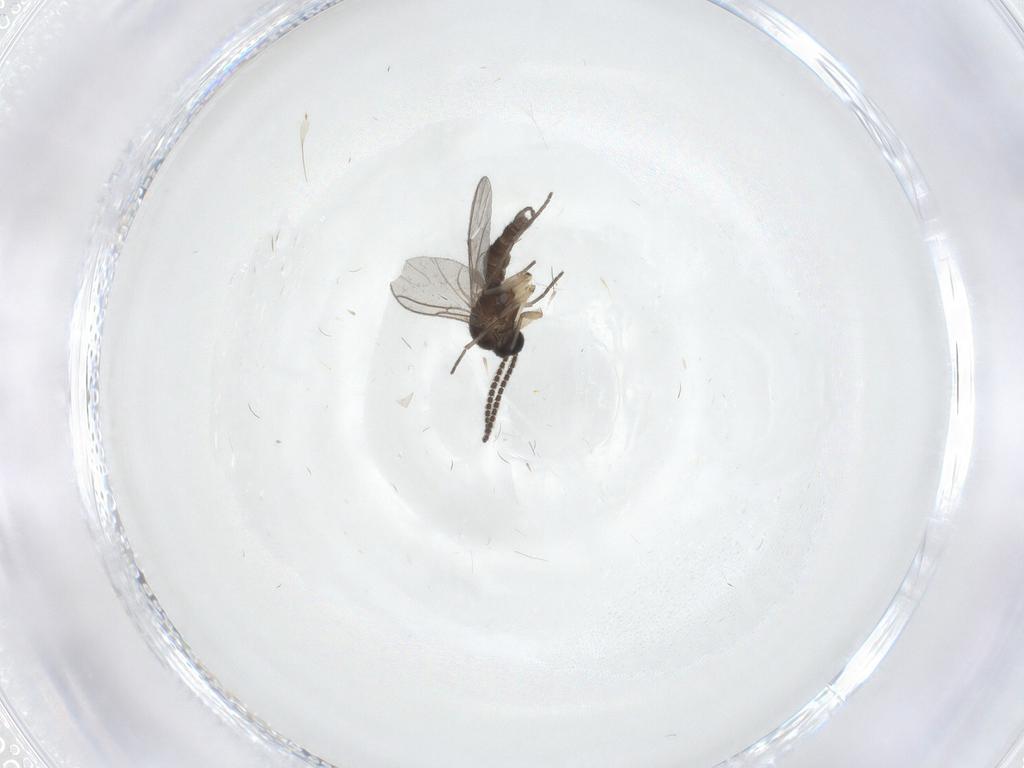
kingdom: Animalia
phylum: Arthropoda
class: Insecta
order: Diptera
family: Sciaridae
